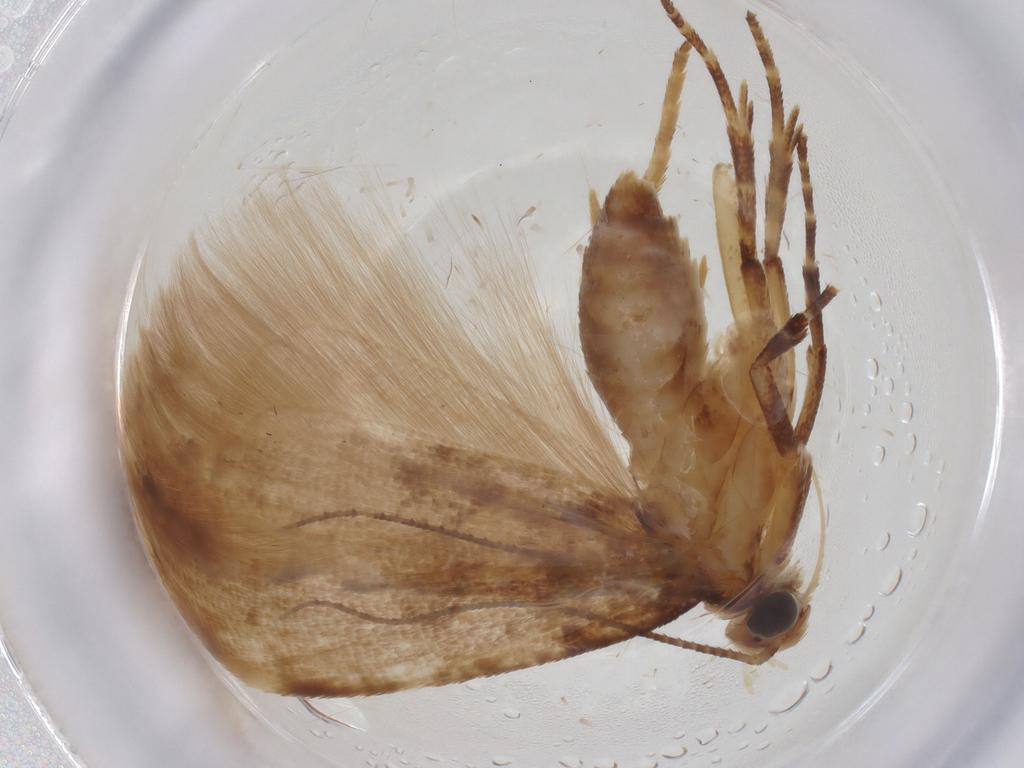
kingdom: Animalia
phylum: Arthropoda
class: Insecta
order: Lepidoptera
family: Gelechiidae
